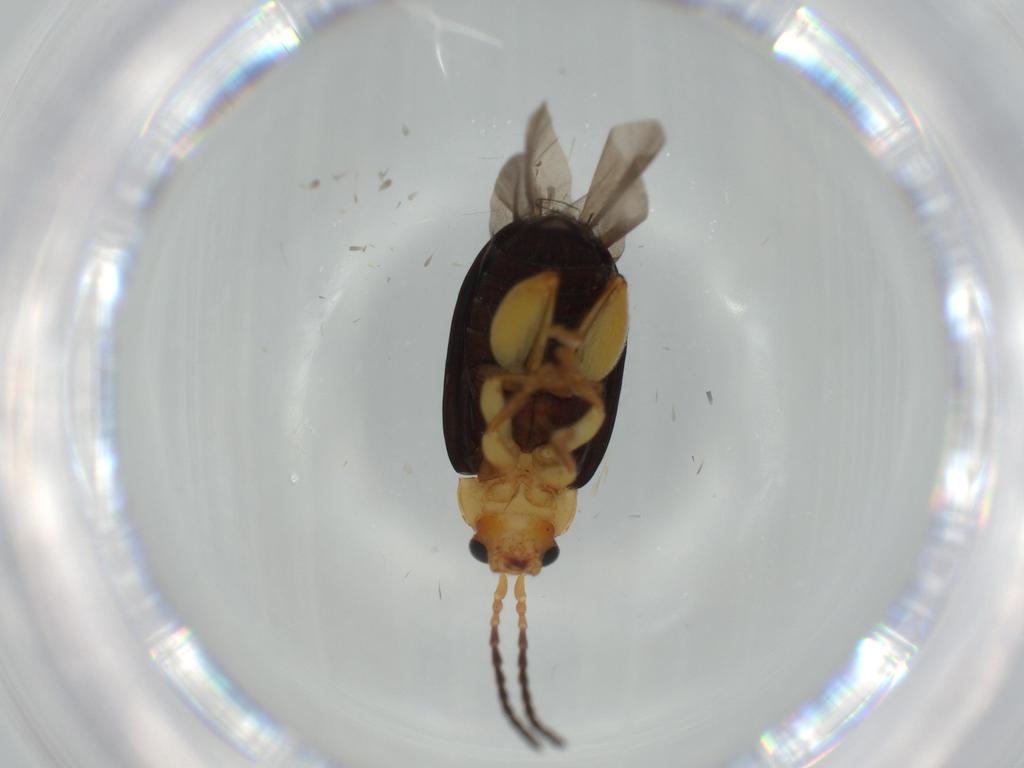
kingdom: Animalia
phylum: Arthropoda
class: Insecta
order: Coleoptera
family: Chrysomelidae
